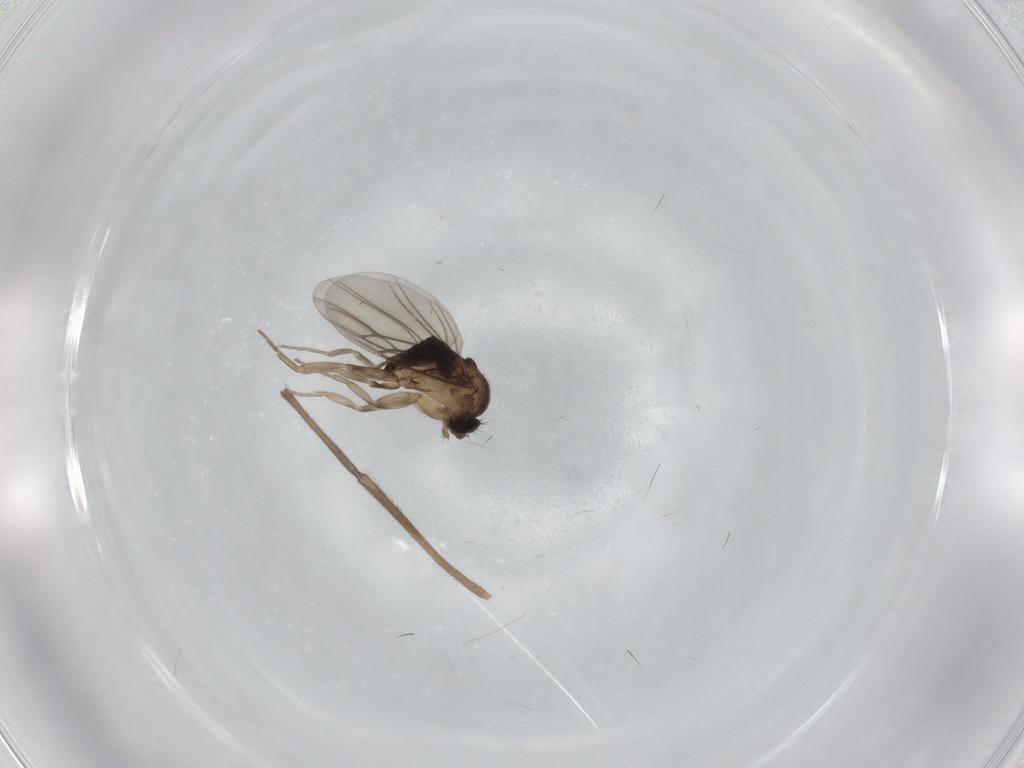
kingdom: Animalia
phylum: Arthropoda
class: Insecta
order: Diptera
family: Phoridae
